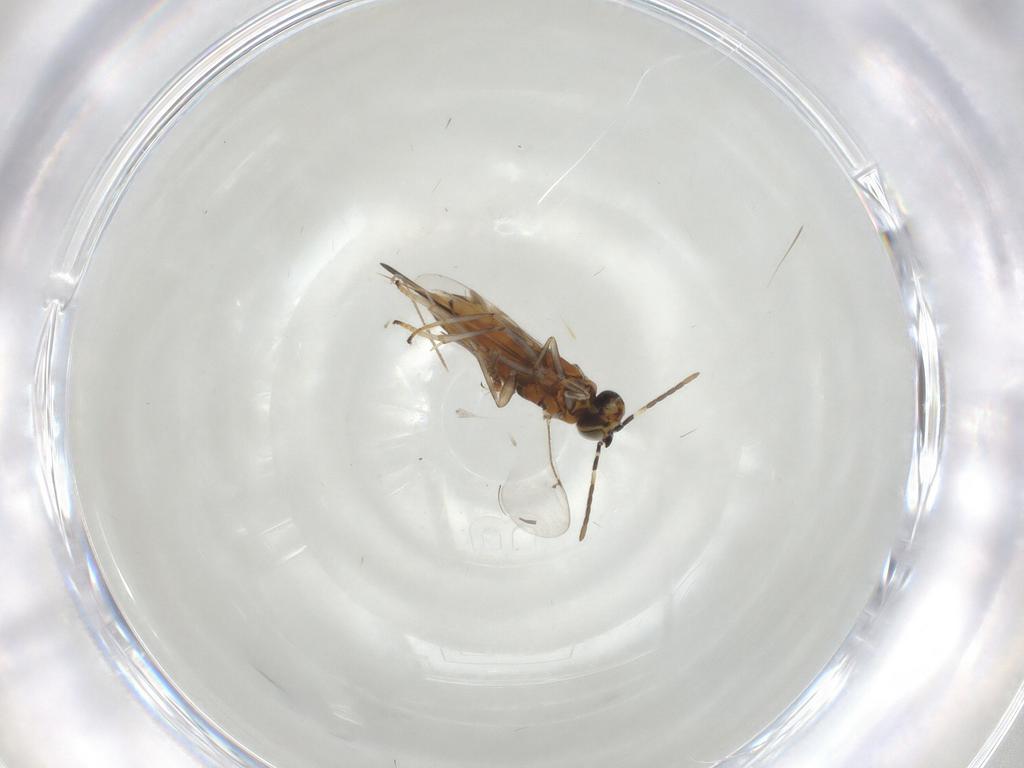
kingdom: Animalia
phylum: Arthropoda
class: Insecta
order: Hymenoptera
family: Encyrtidae
